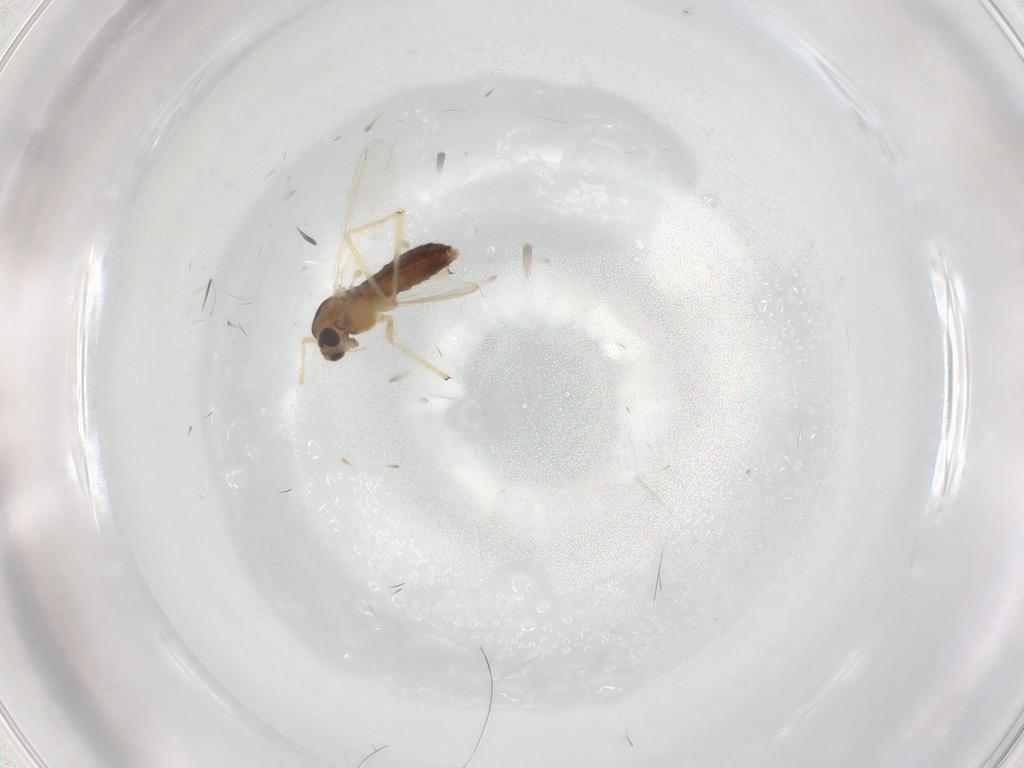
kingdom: Animalia
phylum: Arthropoda
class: Insecta
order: Diptera
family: Chironomidae
